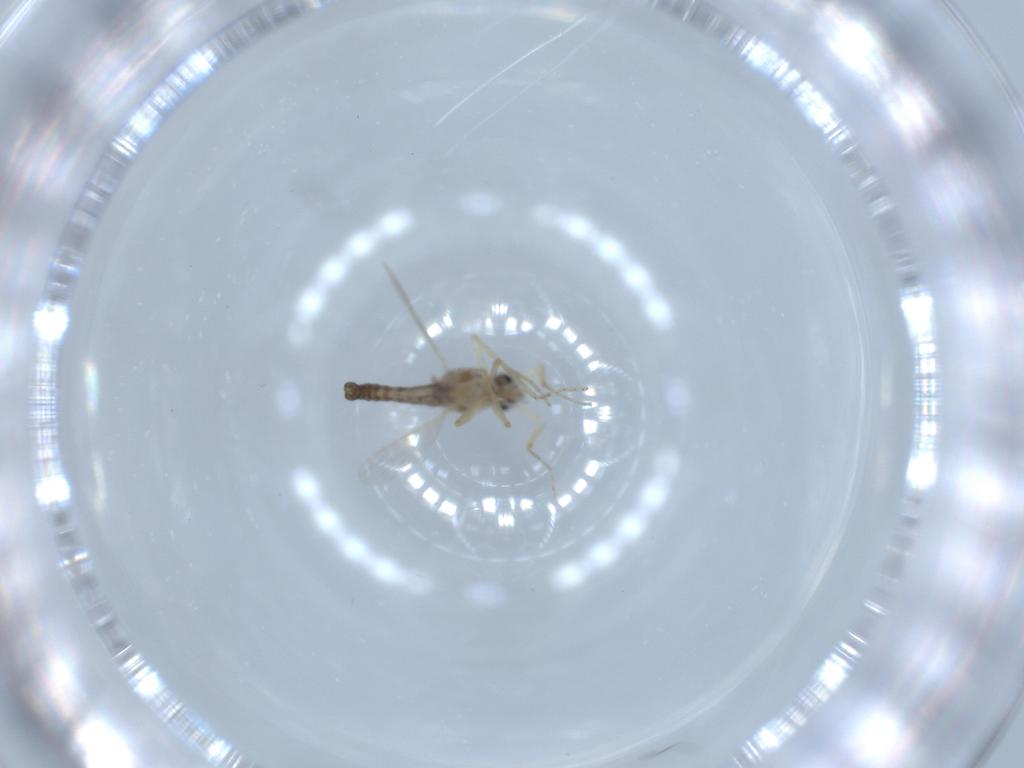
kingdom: Animalia
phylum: Arthropoda
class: Insecta
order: Diptera
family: Ceratopogonidae
